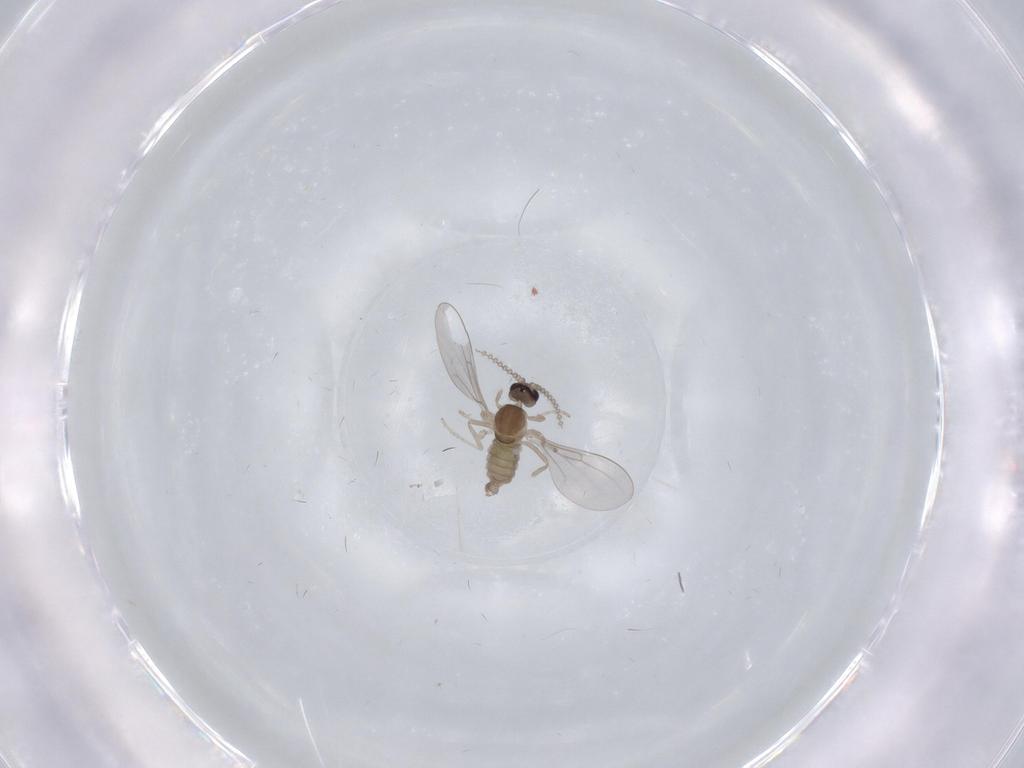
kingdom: Animalia
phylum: Arthropoda
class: Insecta
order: Diptera
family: Cecidomyiidae
